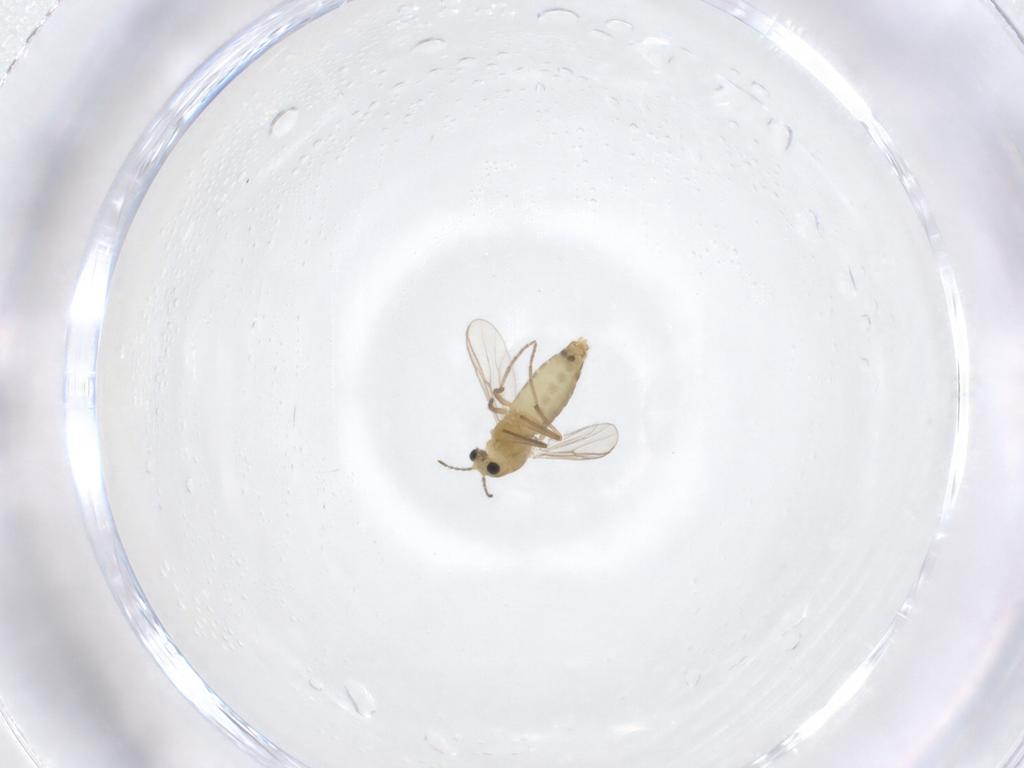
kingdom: Animalia
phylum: Arthropoda
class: Insecta
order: Diptera
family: Chironomidae
